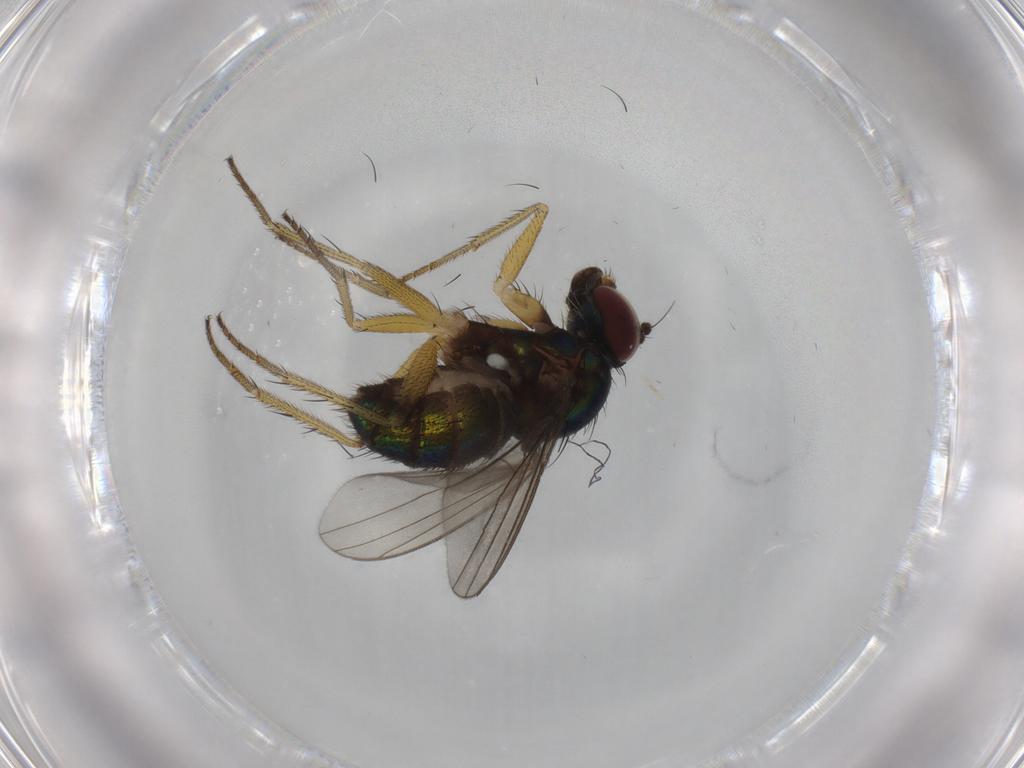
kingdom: Animalia
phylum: Arthropoda
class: Insecta
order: Diptera
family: Dolichopodidae
